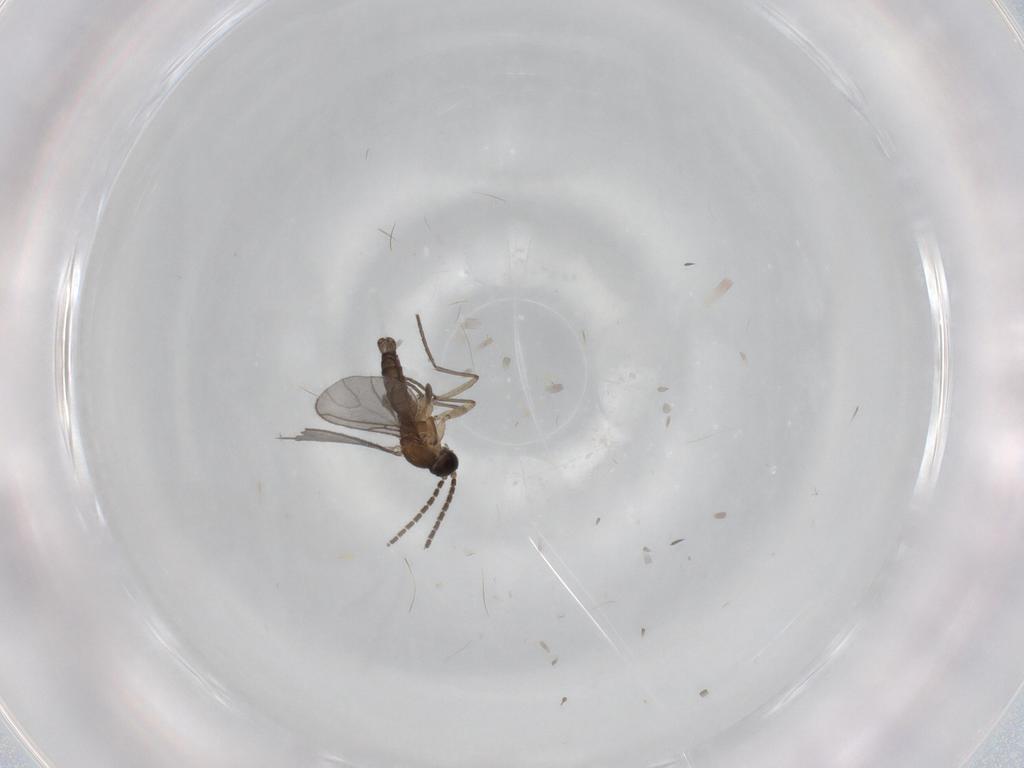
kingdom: Animalia
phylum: Arthropoda
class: Insecta
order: Diptera
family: Sciaridae
